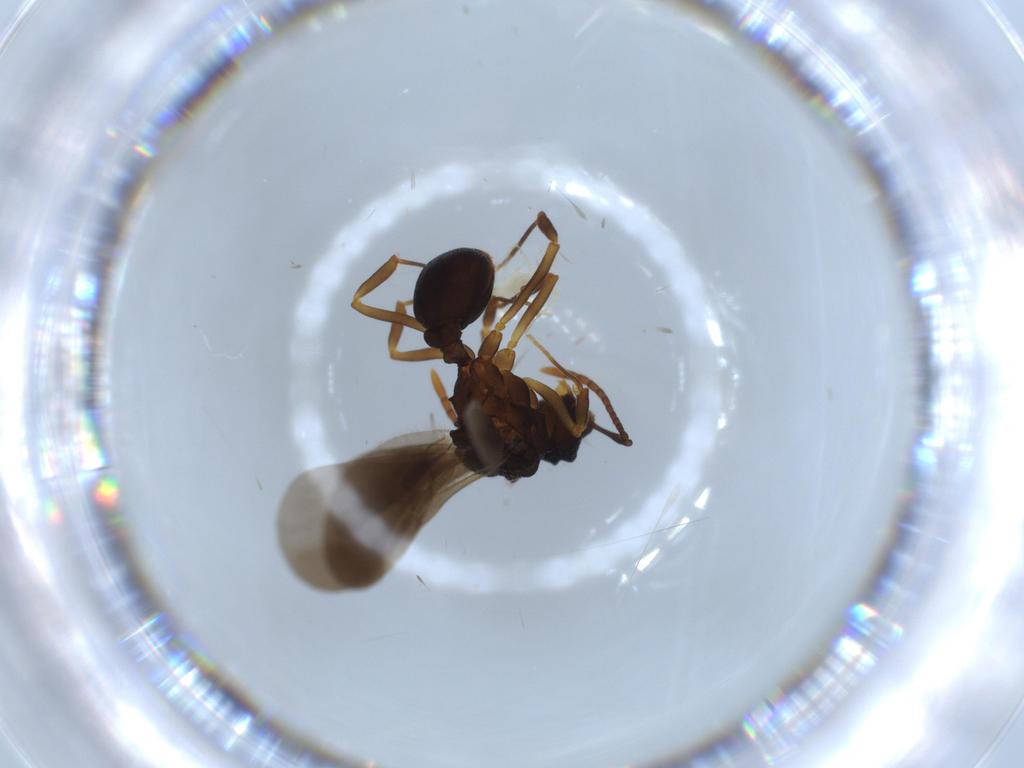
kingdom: Animalia
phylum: Arthropoda
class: Insecta
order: Hymenoptera
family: Formicidae
